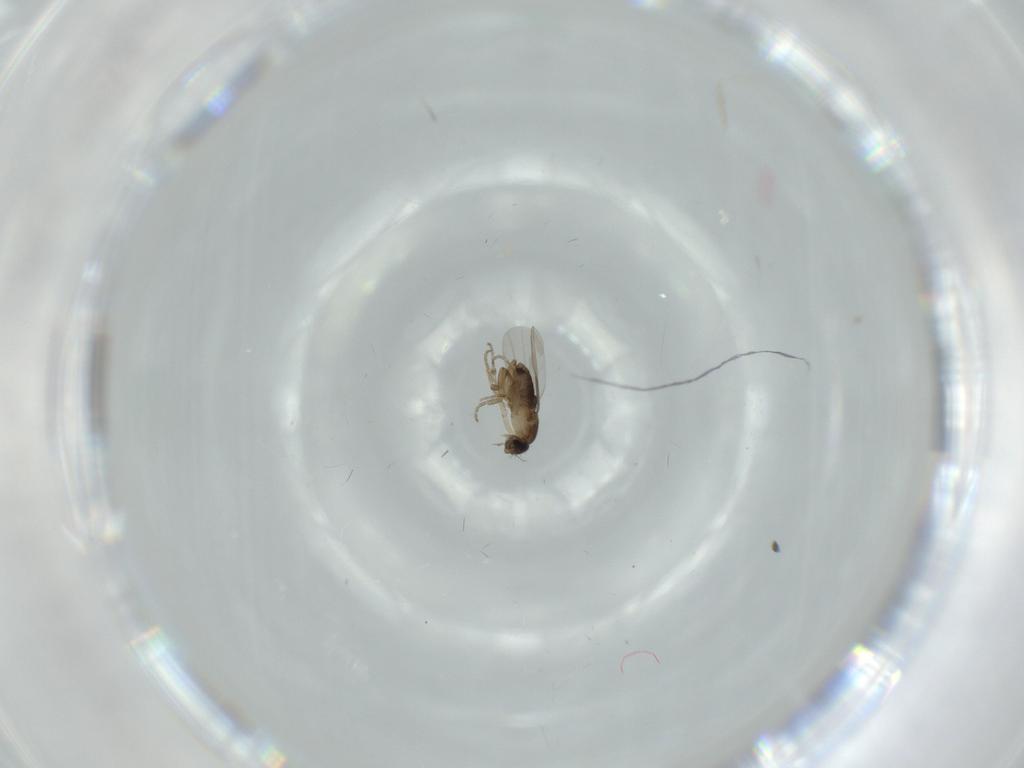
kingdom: Animalia
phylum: Arthropoda
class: Insecta
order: Diptera
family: Phoridae
